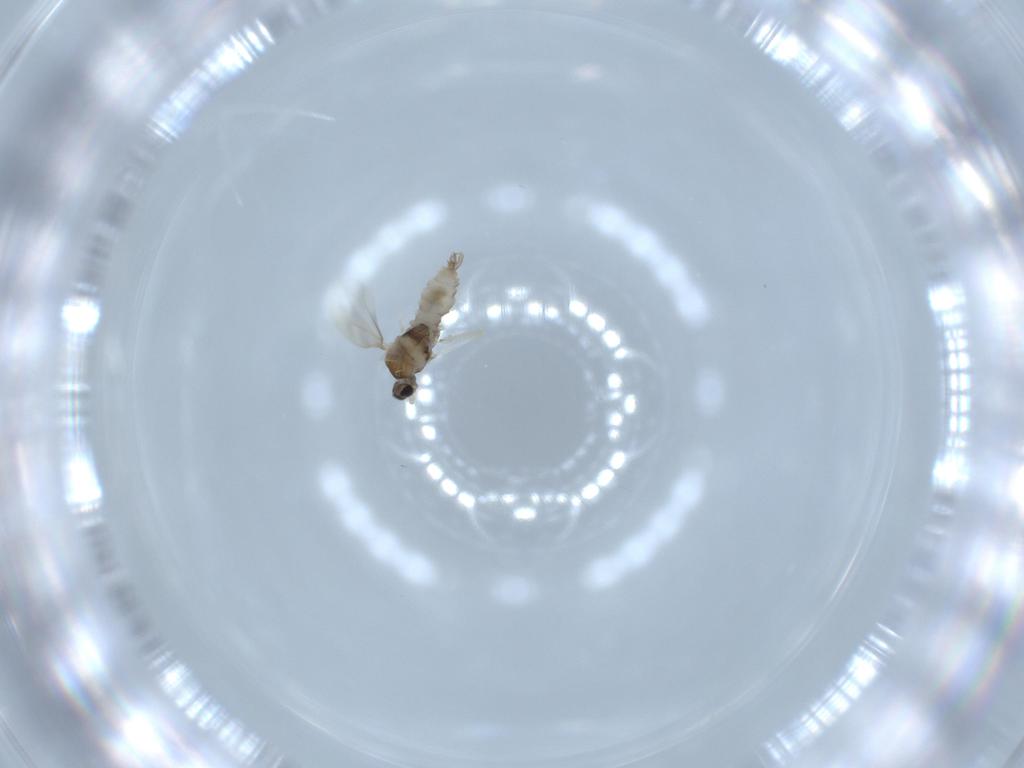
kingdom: Animalia
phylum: Arthropoda
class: Insecta
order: Diptera
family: Cecidomyiidae
